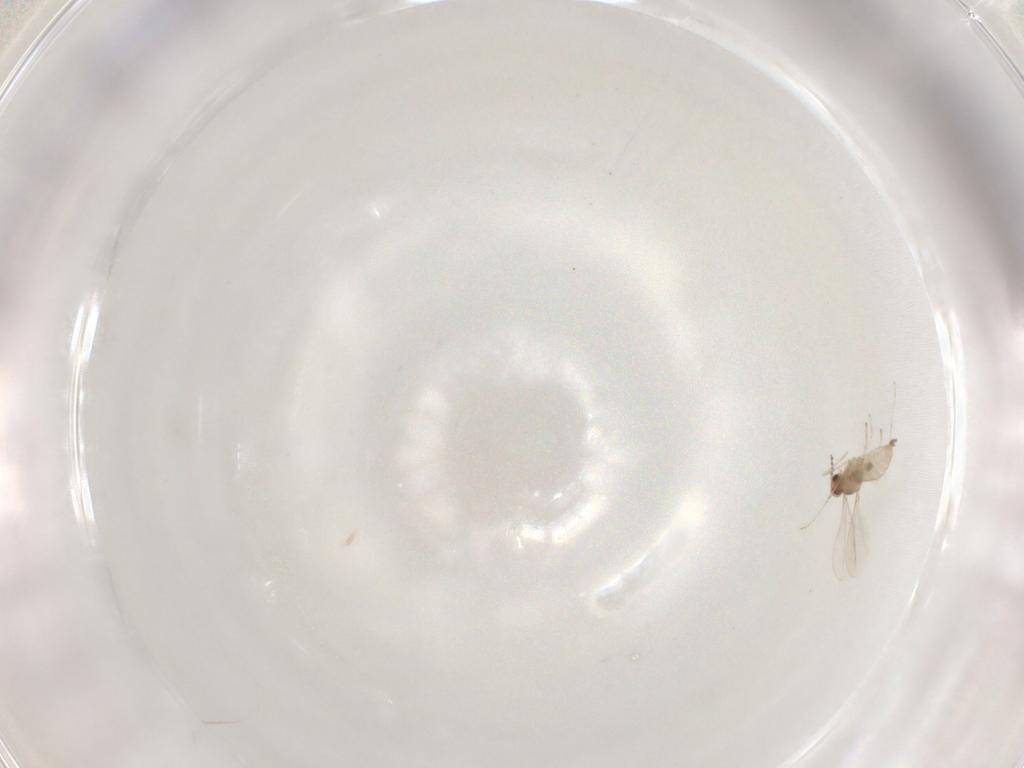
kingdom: Animalia
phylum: Arthropoda
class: Insecta
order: Diptera
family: Cecidomyiidae
